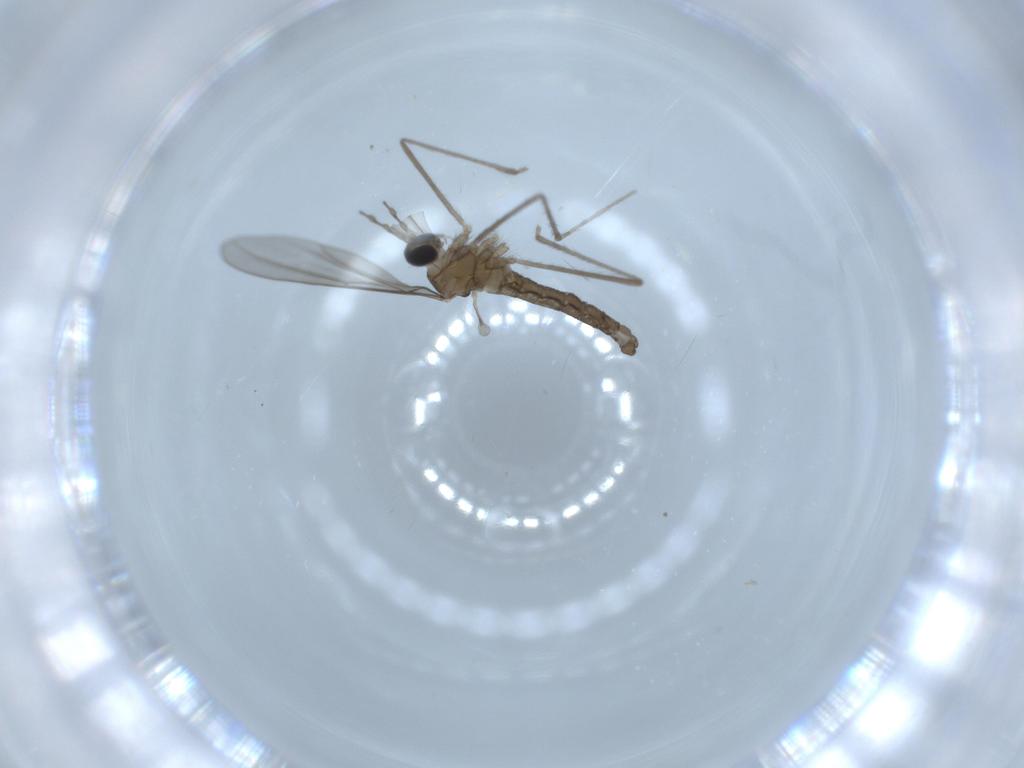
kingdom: Animalia
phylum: Arthropoda
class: Insecta
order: Diptera
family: Cecidomyiidae
